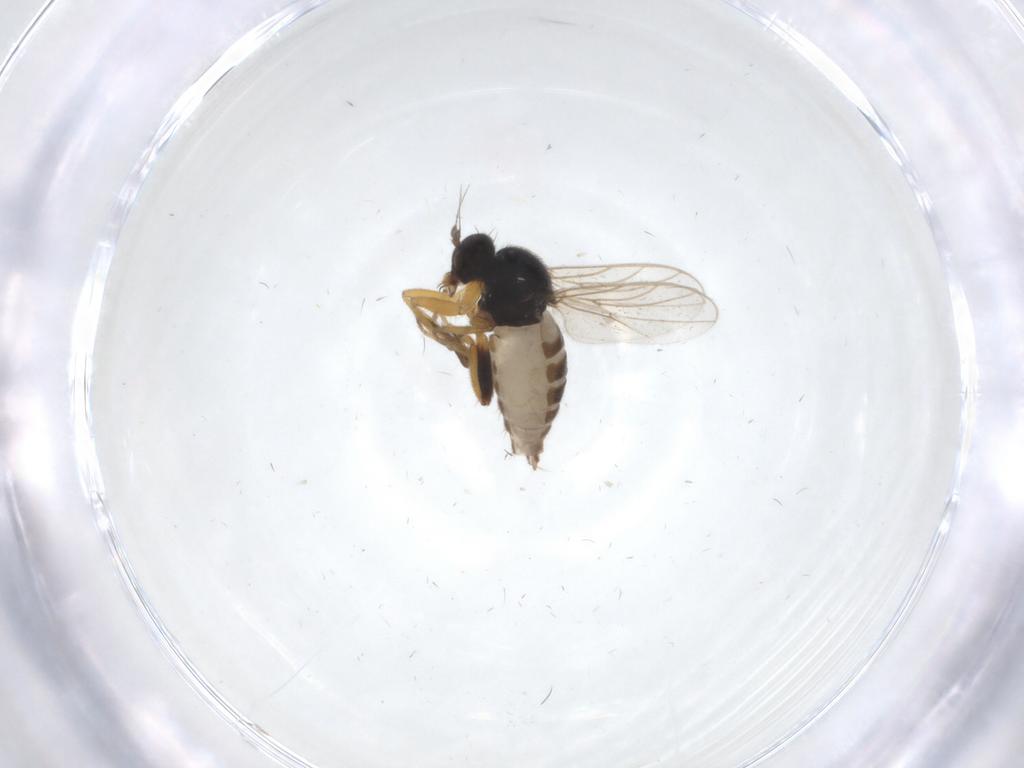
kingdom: Animalia
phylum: Arthropoda
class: Insecta
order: Diptera
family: Hybotidae
